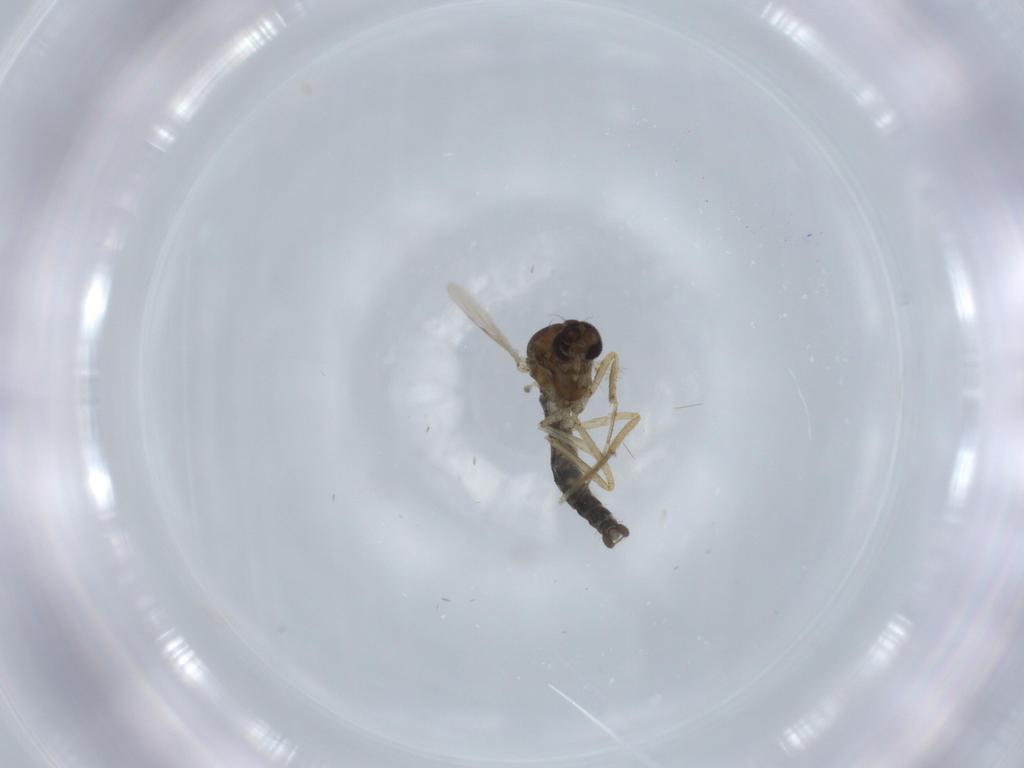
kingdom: Animalia
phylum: Arthropoda
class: Insecta
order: Diptera
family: Ceratopogonidae
